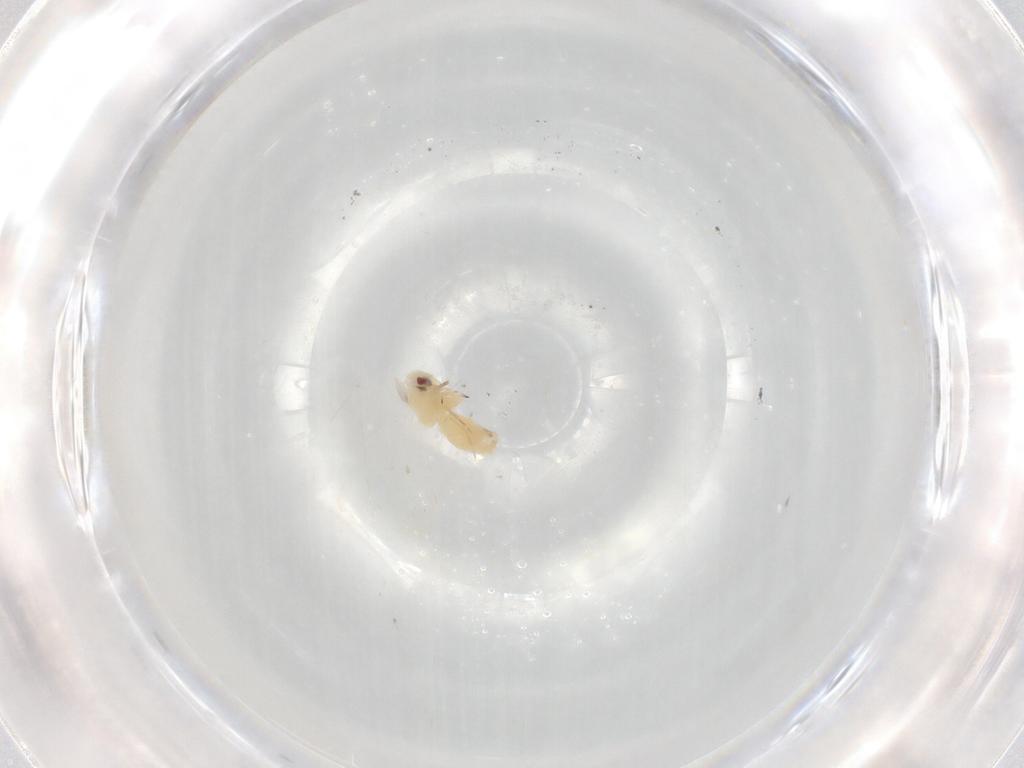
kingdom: Animalia
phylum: Arthropoda
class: Insecta
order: Hemiptera
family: Aleyrodidae
